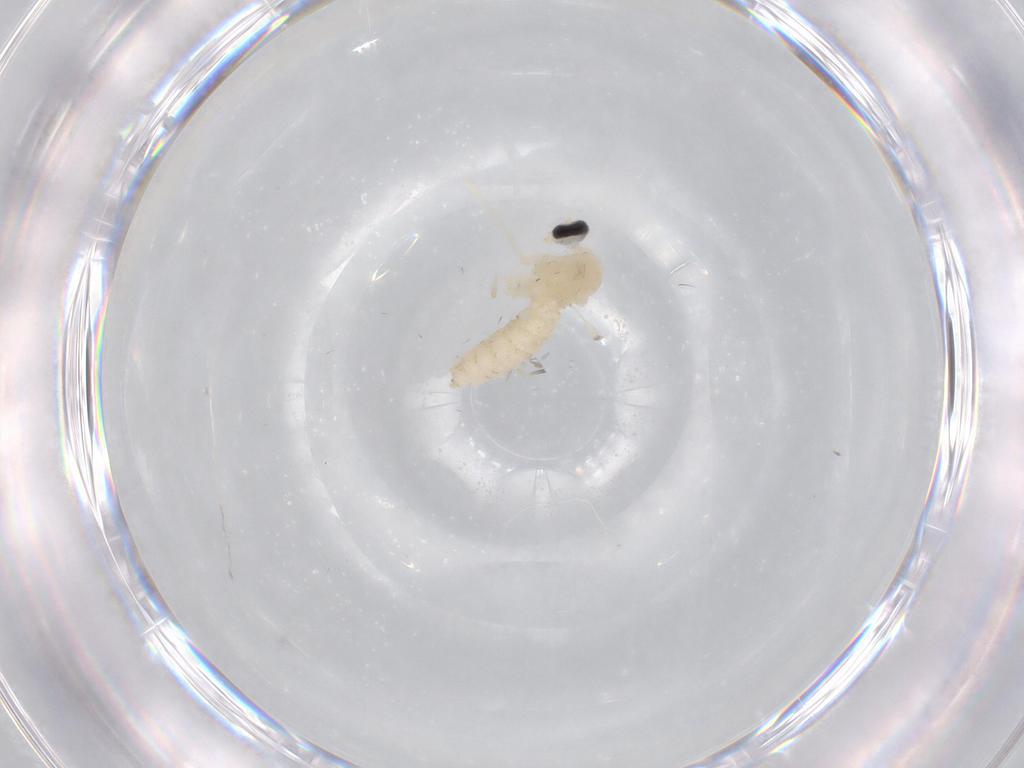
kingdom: Animalia
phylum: Arthropoda
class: Insecta
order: Diptera
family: Cecidomyiidae
